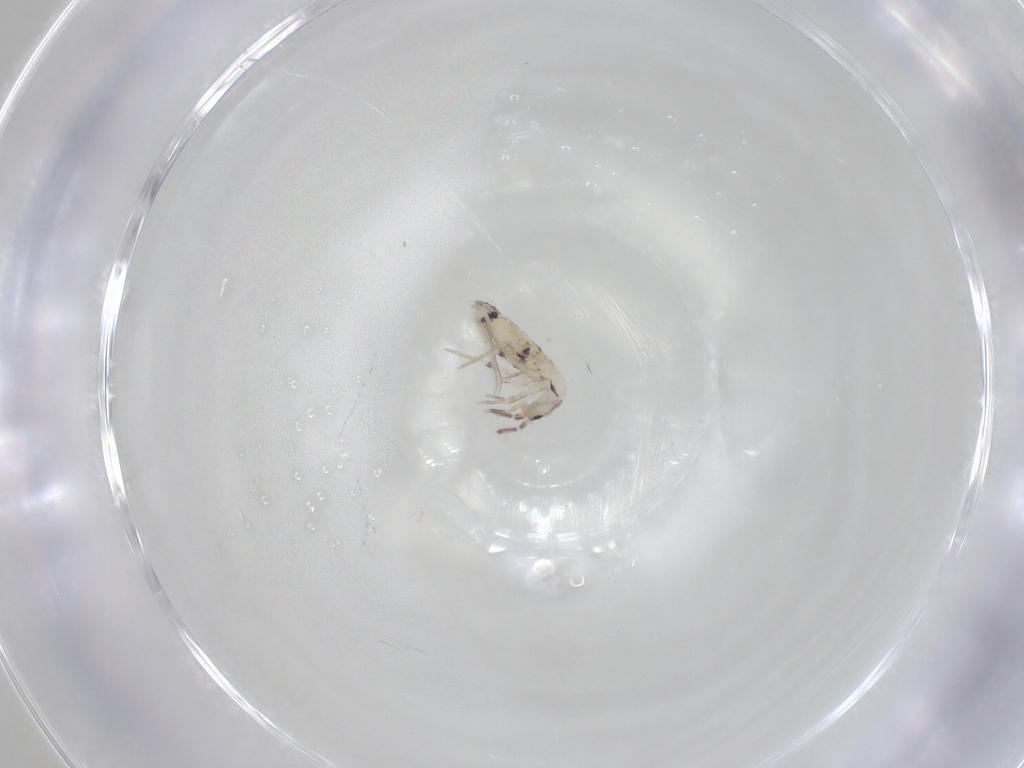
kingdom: Animalia
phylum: Arthropoda
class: Collembola
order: Entomobryomorpha
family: Entomobryidae
